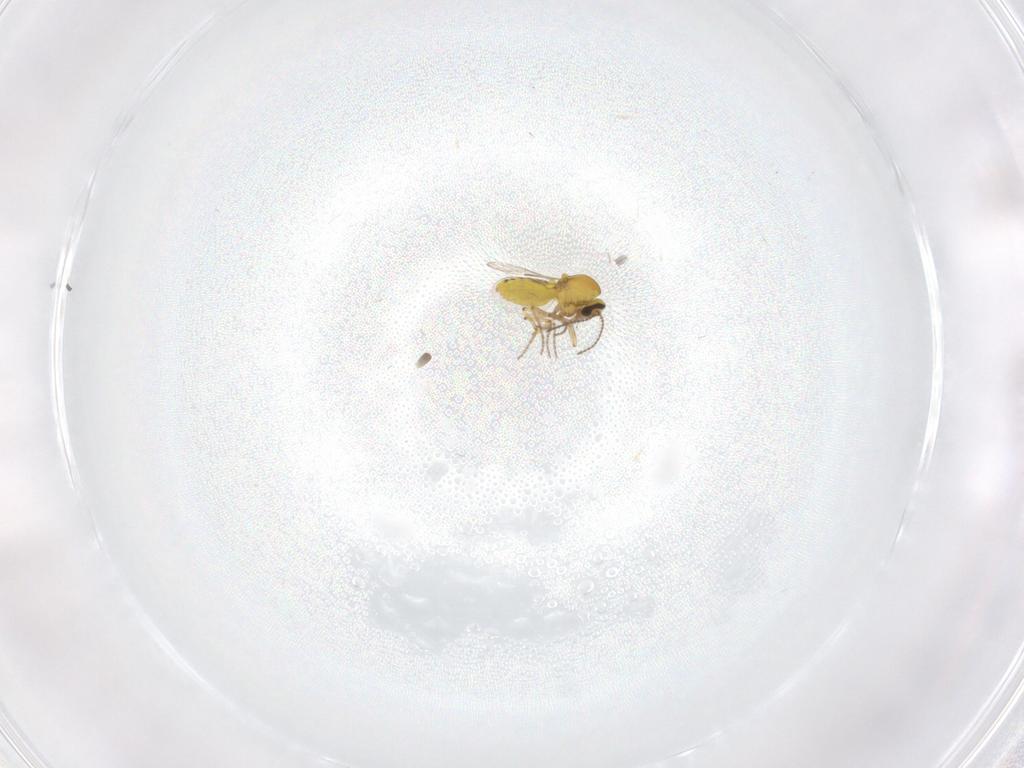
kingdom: Animalia
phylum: Arthropoda
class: Insecta
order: Diptera
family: Ceratopogonidae
